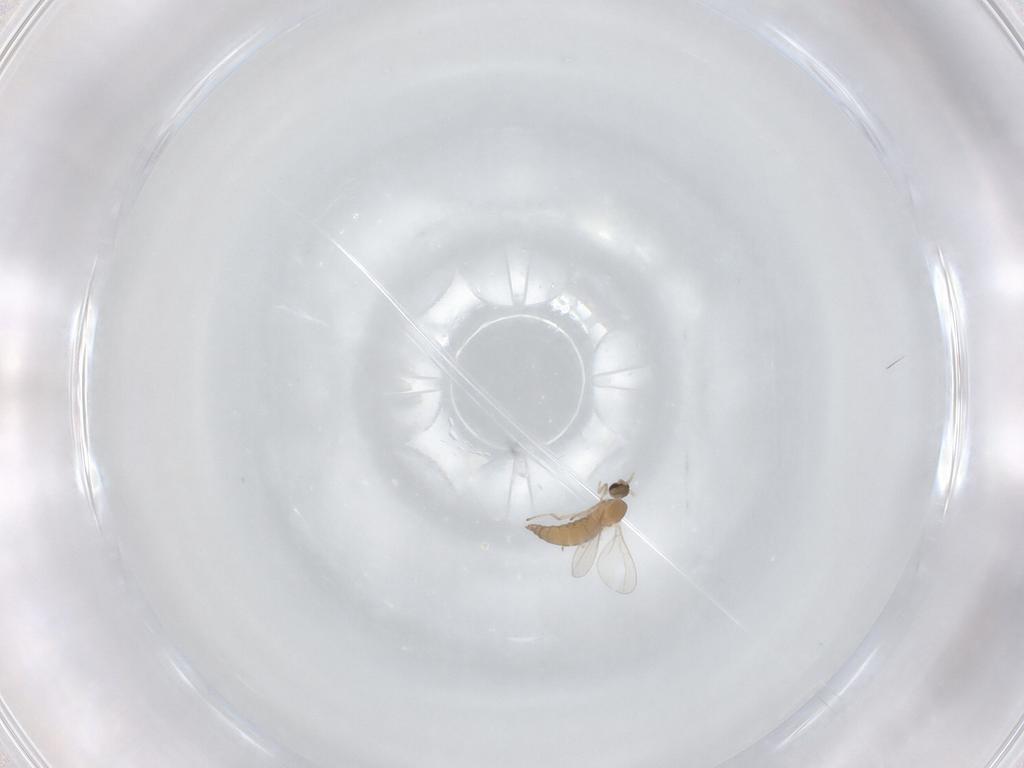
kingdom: Animalia
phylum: Arthropoda
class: Insecta
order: Diptera
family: Cecidomyiidae
